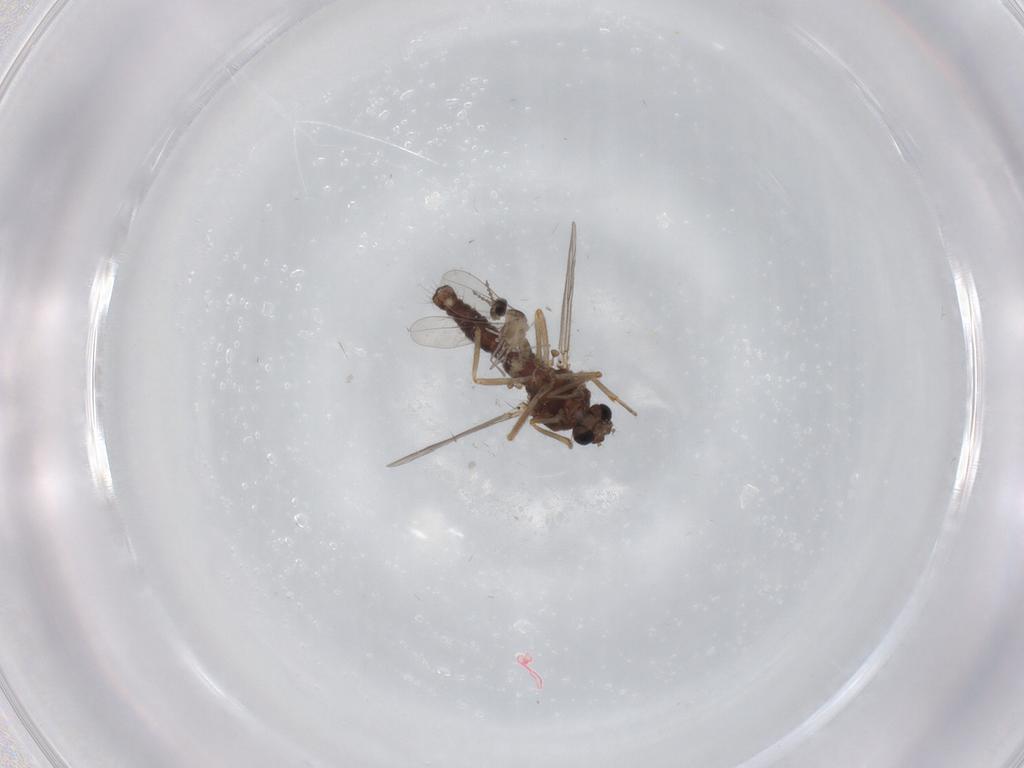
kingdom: Animalia
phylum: Arthropoda
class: Insecta
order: Diptera
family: Ceratopogonidae
